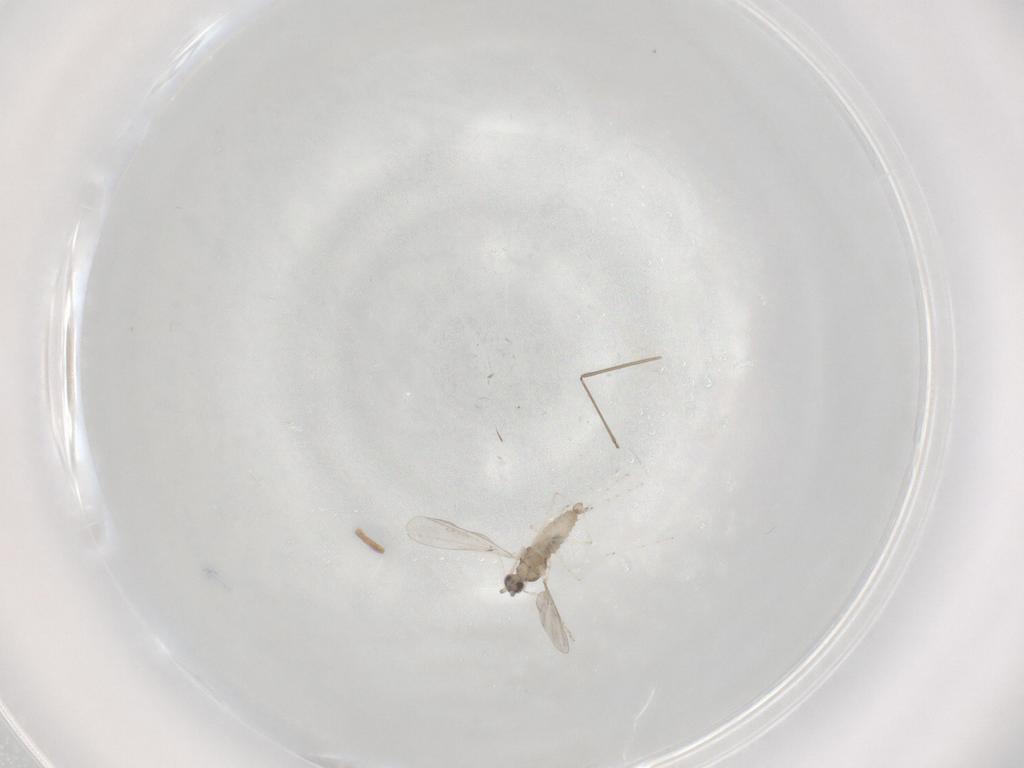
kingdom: Animalia
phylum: Arthropoda
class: Insecta
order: Diptera
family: Cecidomyiidae
